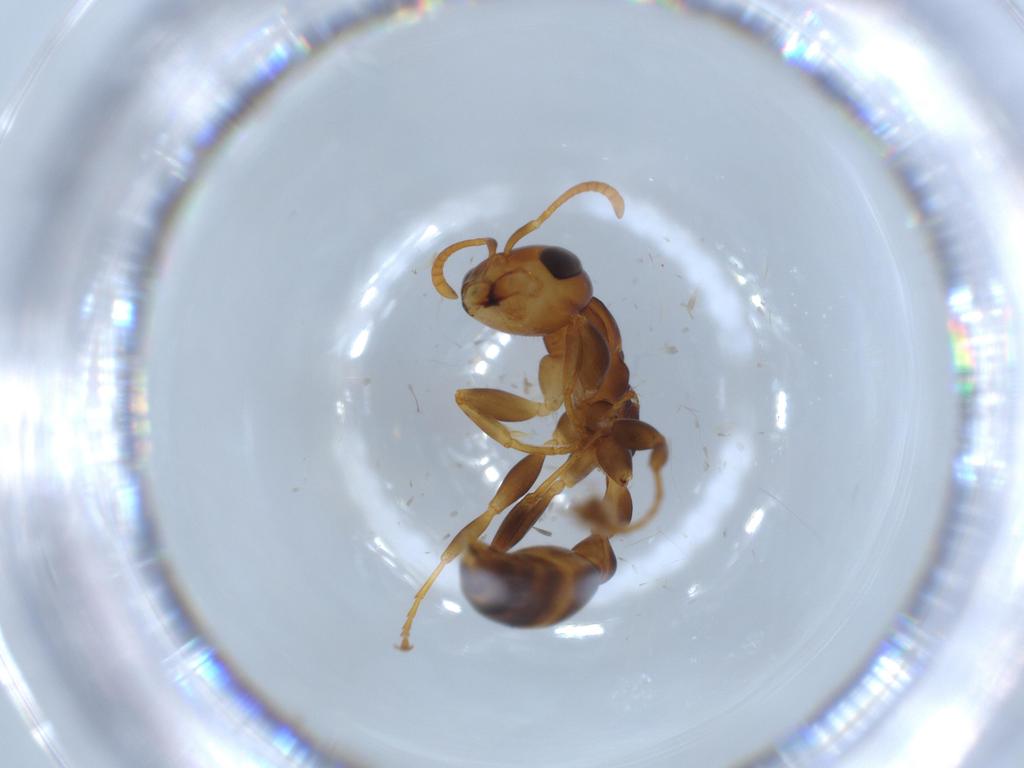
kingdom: Animalia
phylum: Arthropoda
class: Insecta
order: Hymenoptera
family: Formicidae
